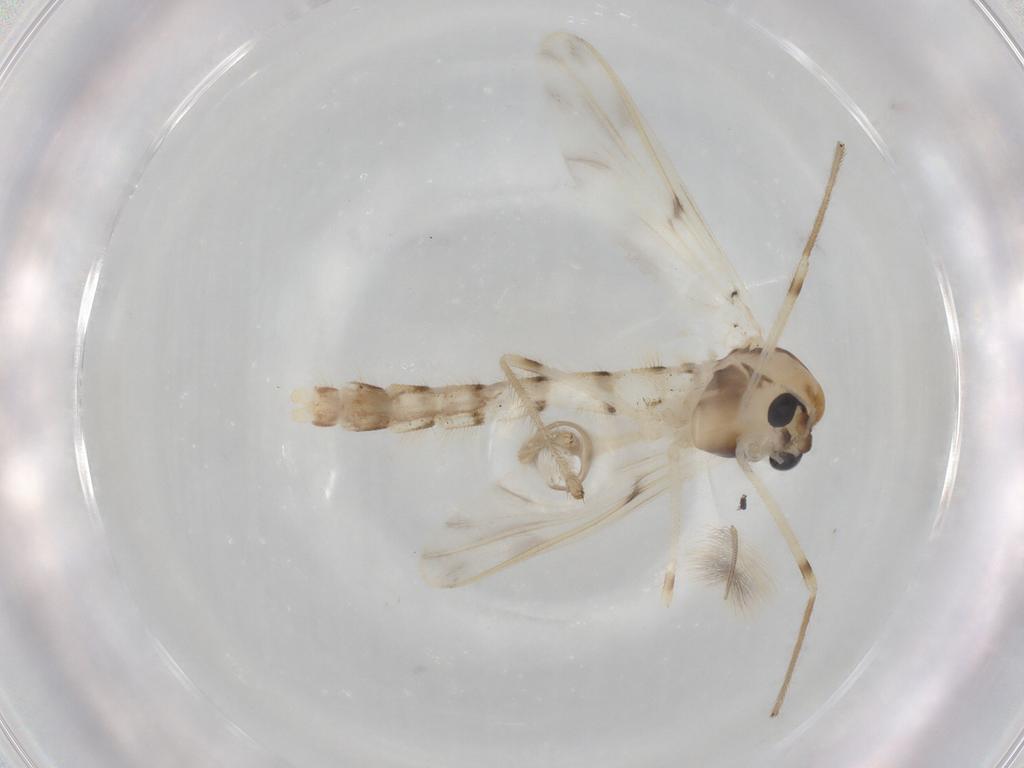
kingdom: Animalia
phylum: Arthropoda
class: Insecta
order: Diptera
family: Chironomidae
